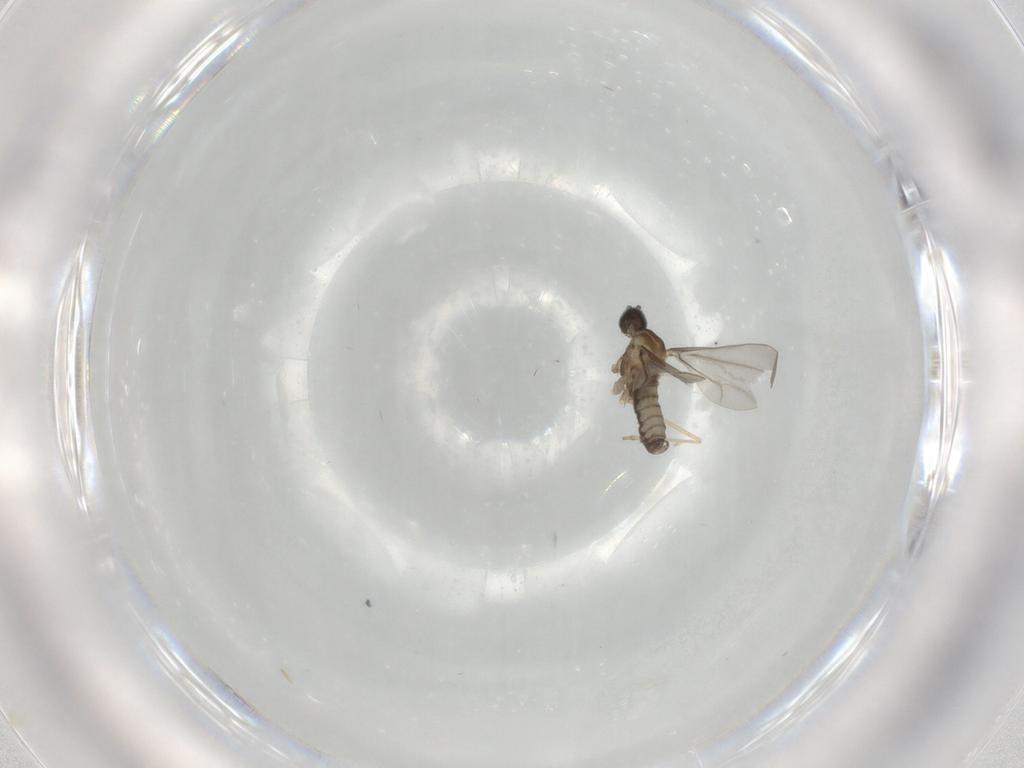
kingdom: Animalia
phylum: Arthropoda
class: Insecta
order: Diptera
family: Cecidomyiidae
